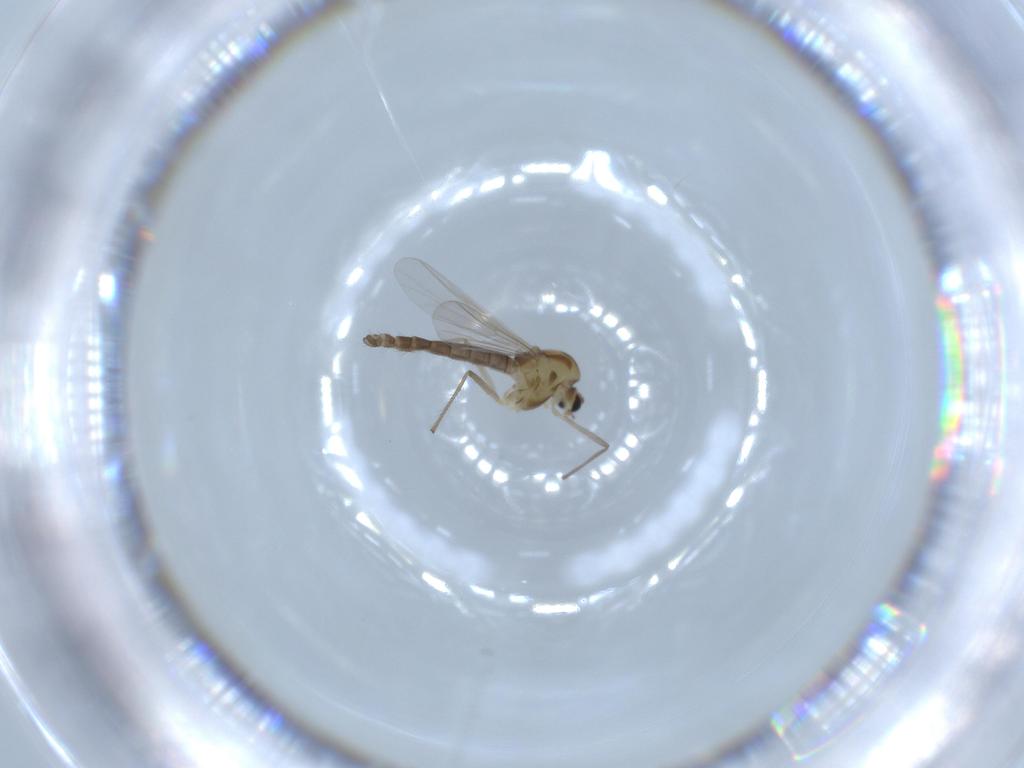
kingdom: Animalia
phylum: Arthropoda
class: Insecta
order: Diptera
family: Chironomidae
